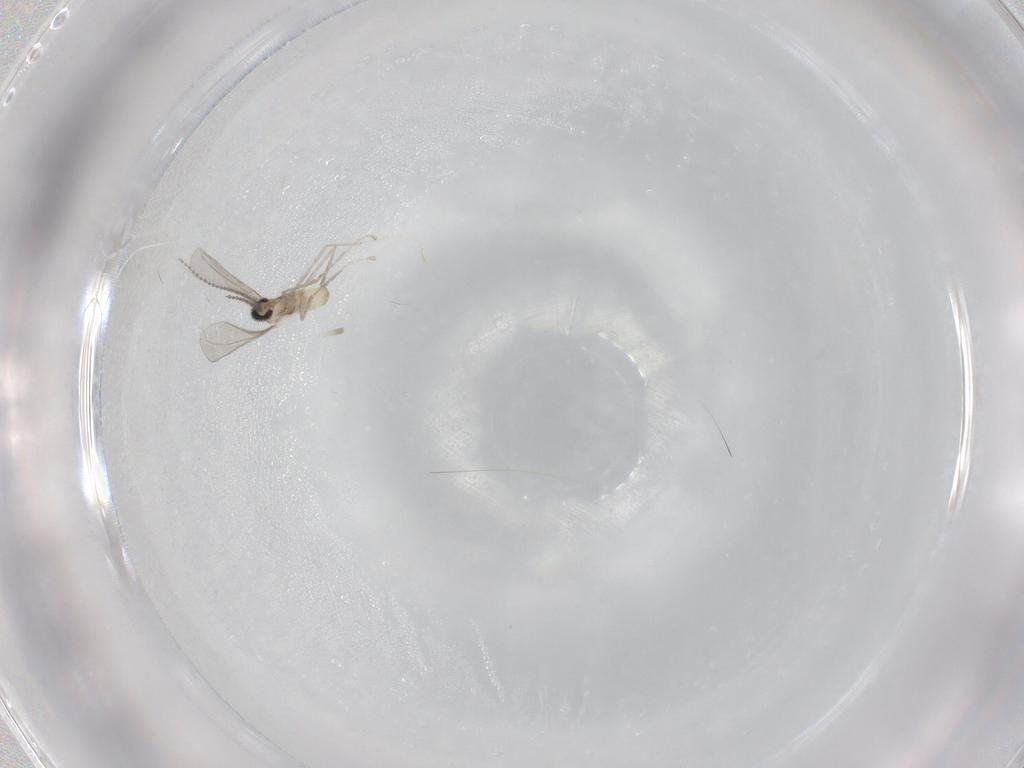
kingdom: Animalia
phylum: Arthropoda
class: Insecta
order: Diptera
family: Cecidomyiidae
